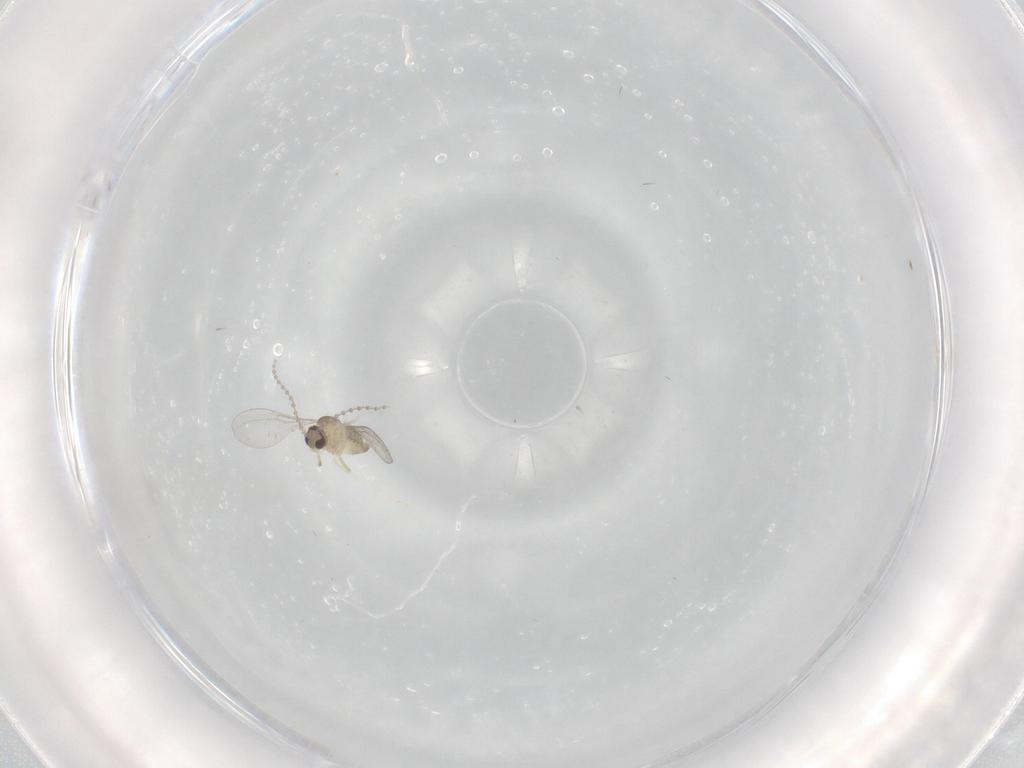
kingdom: Animalia
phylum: Arthropoda
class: Insecta
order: Diptera
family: Cecidomyiidae
